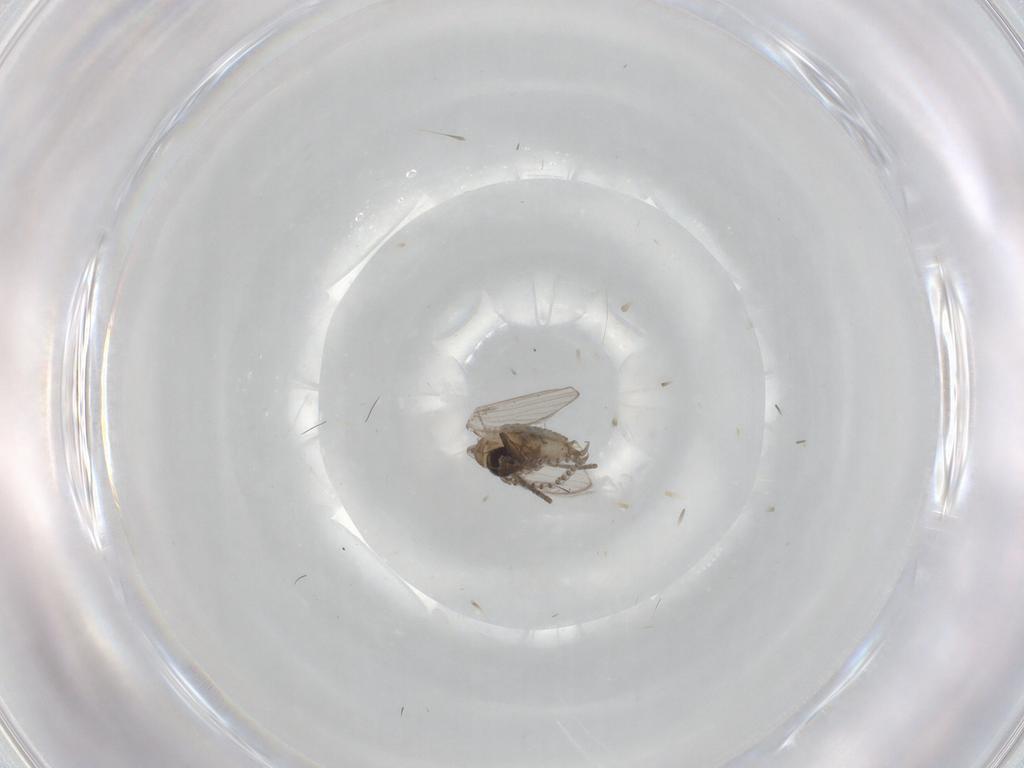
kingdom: Animalia
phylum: Arthropoda
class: Insecta
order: Diptera
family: Psychodidae
